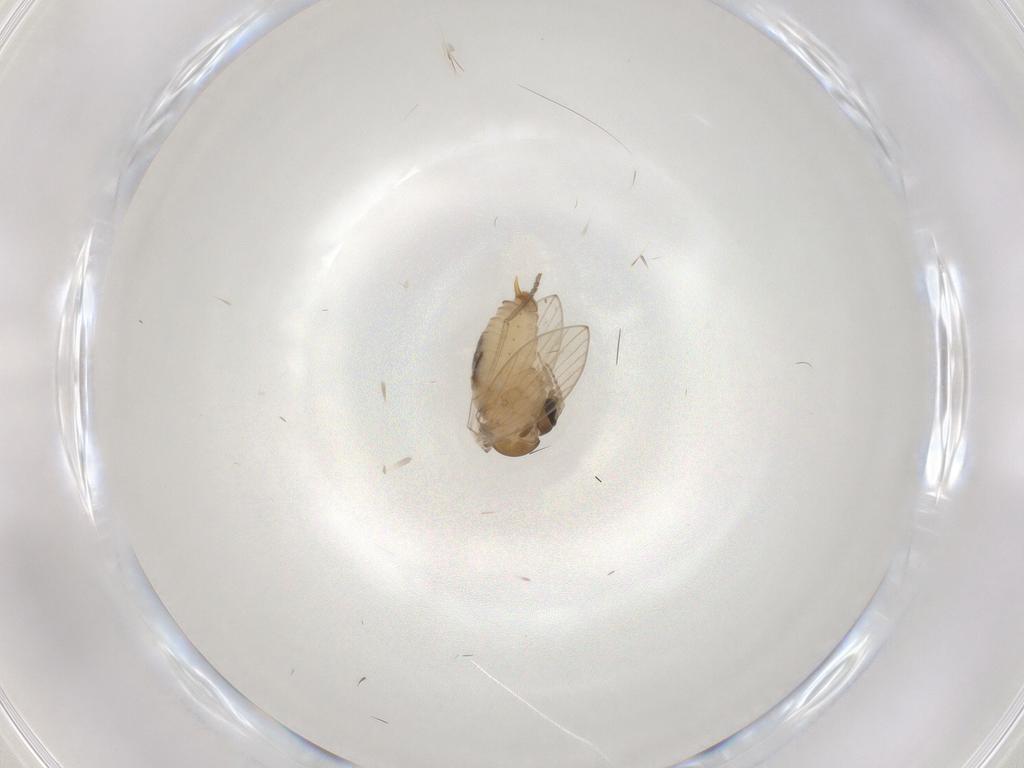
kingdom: Animalia
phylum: Arthropoda
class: Insecta
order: Diptera
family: Psychodidae
